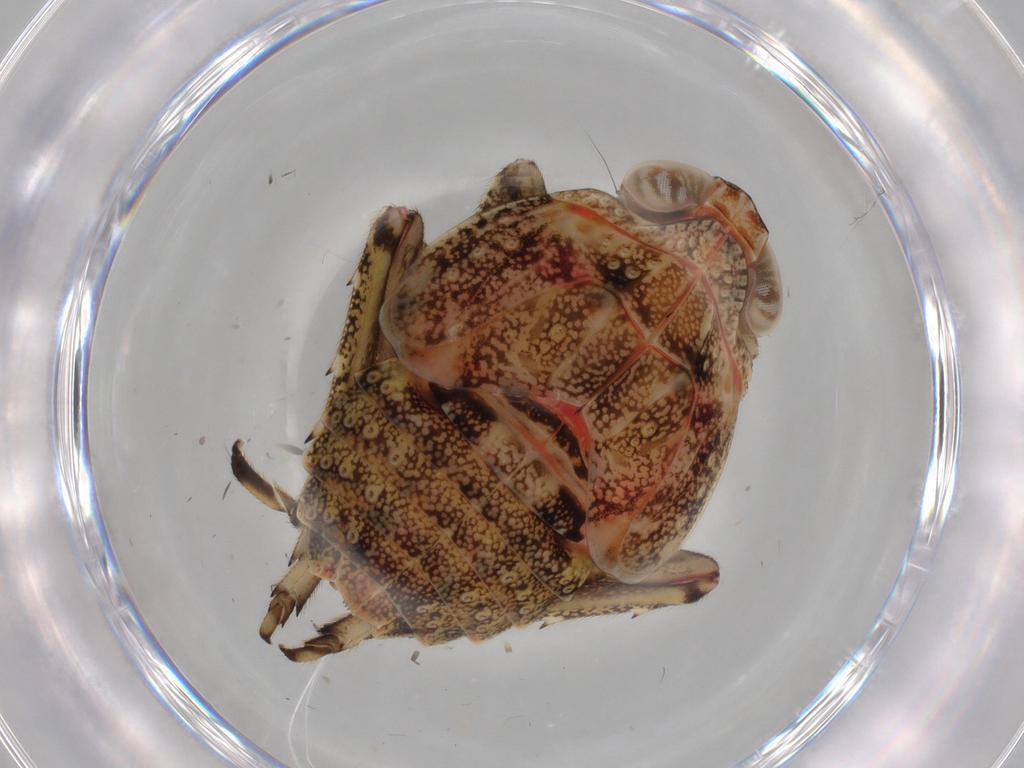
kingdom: Animalia
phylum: Arthropoda
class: Insecta
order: Hemiptera
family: Issidae
